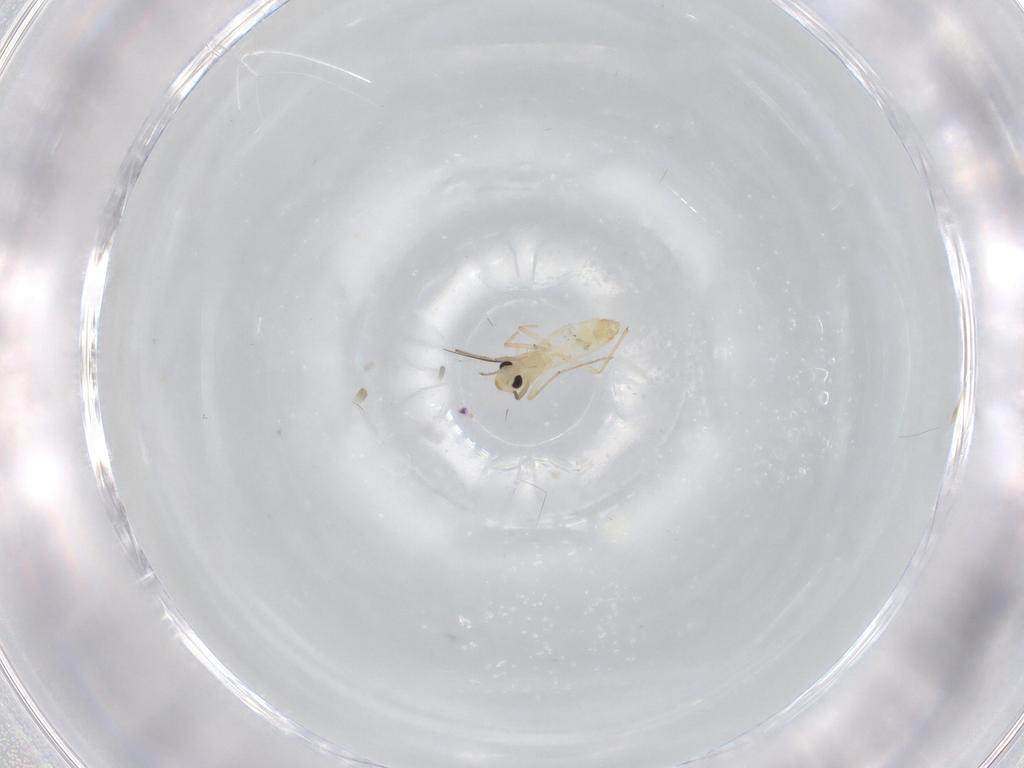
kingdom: Animalia
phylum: Arthropoda
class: Insecta
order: Diptera
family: Chironomidae
